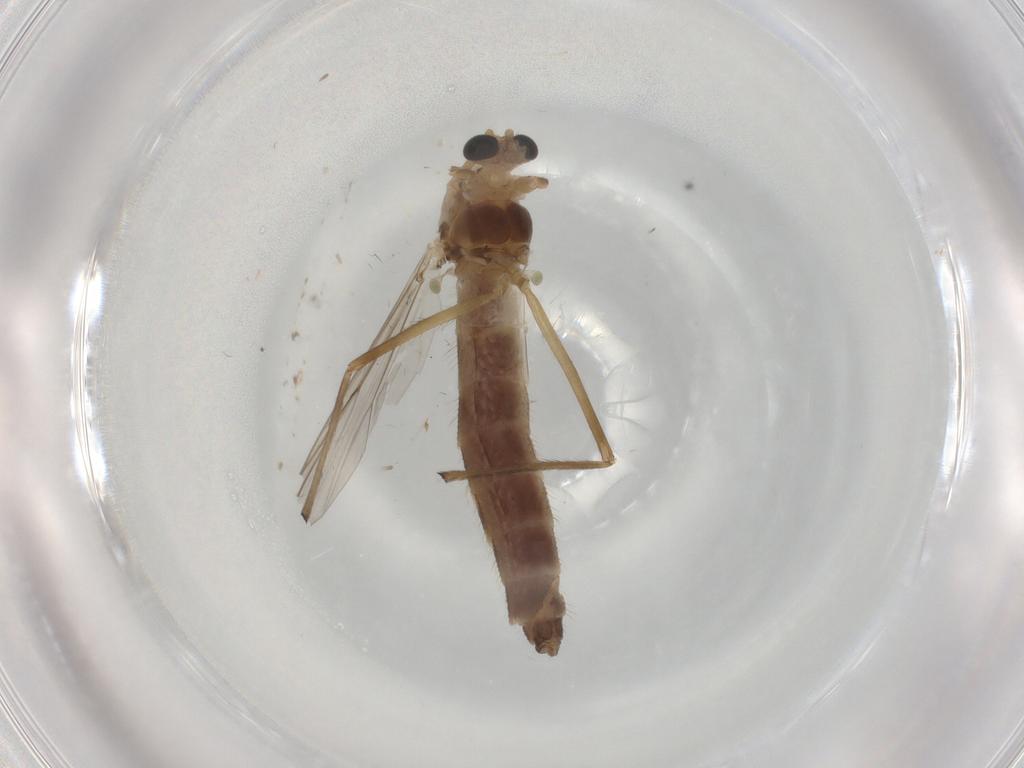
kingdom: Animalia
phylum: Arthropoda
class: Insecta
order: Diptera
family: Chironomidae
